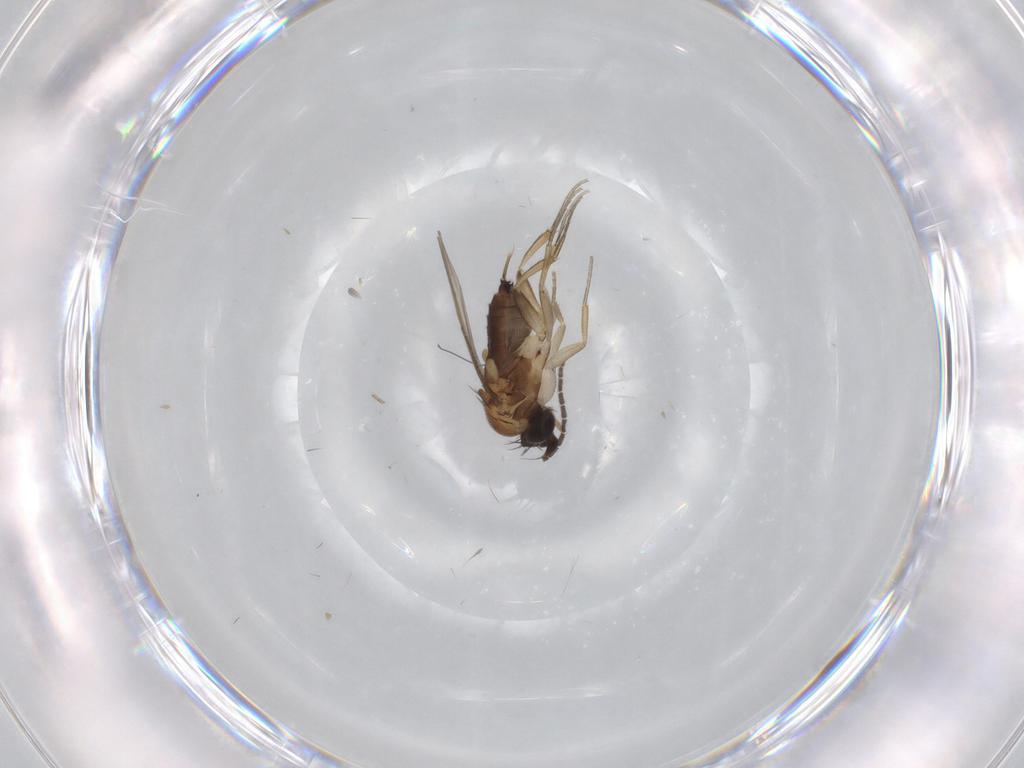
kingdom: Animalia
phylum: Arthropoda
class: Insecta
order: Diptera
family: Phoridae
